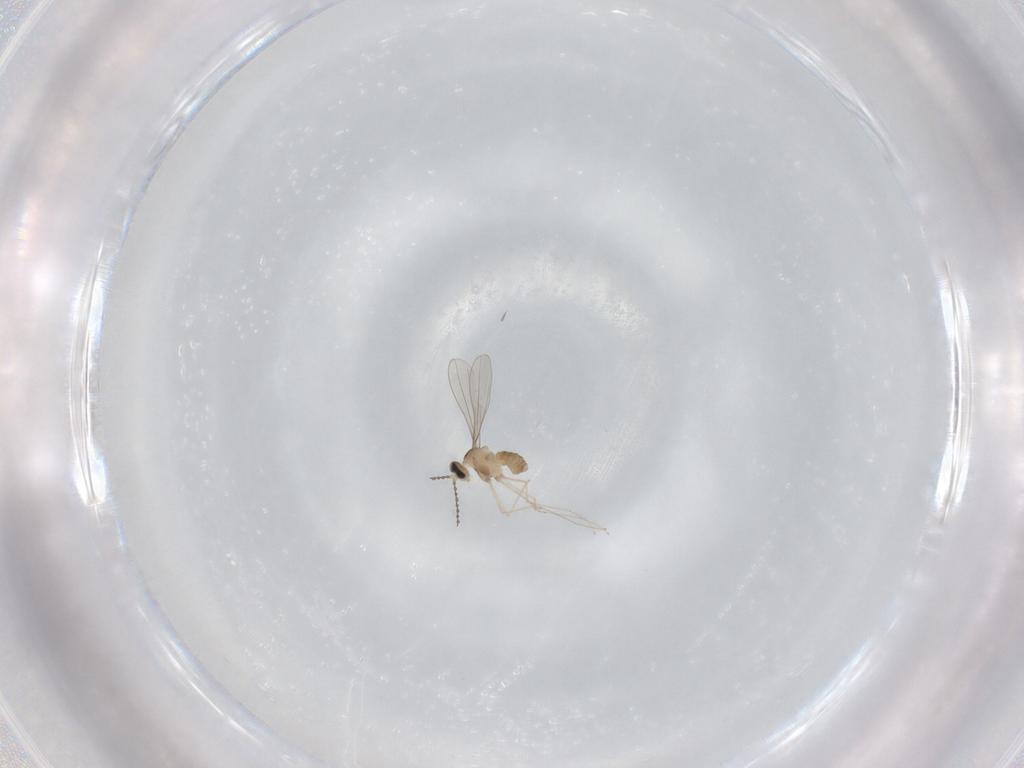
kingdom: Animalia
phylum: Arthropoda
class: Insecta
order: Diptera
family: Cecidomyiidae
